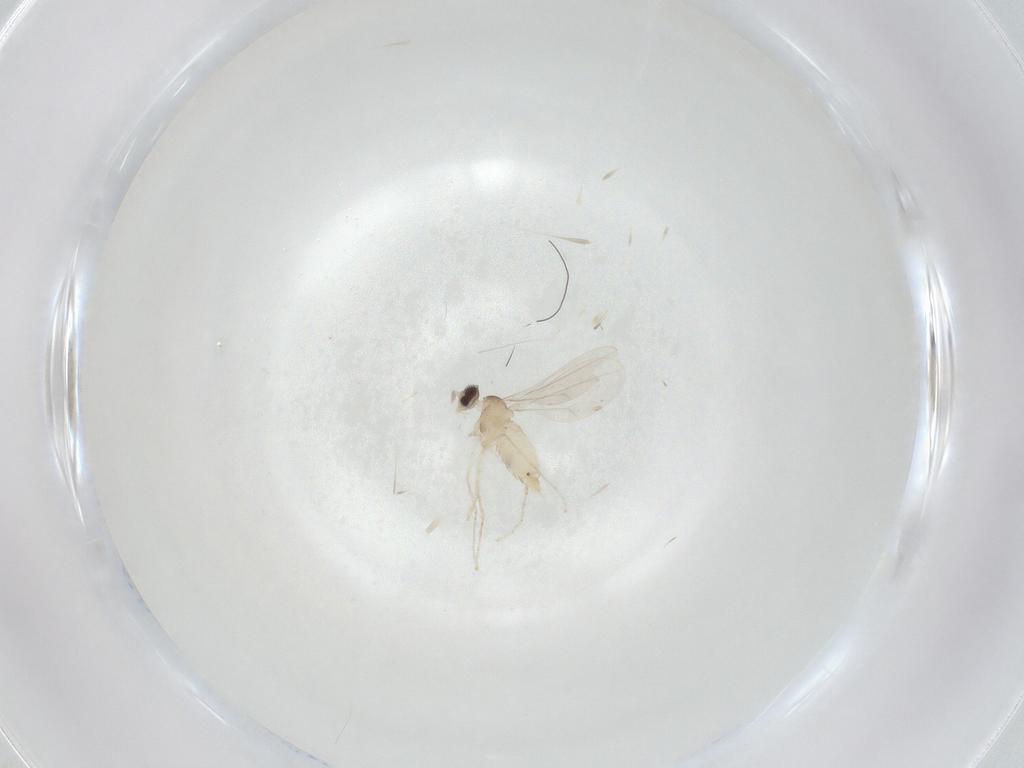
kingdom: Animalia
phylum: Arthropoda
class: Insecta
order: Diptera
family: Cecidomyiidae
